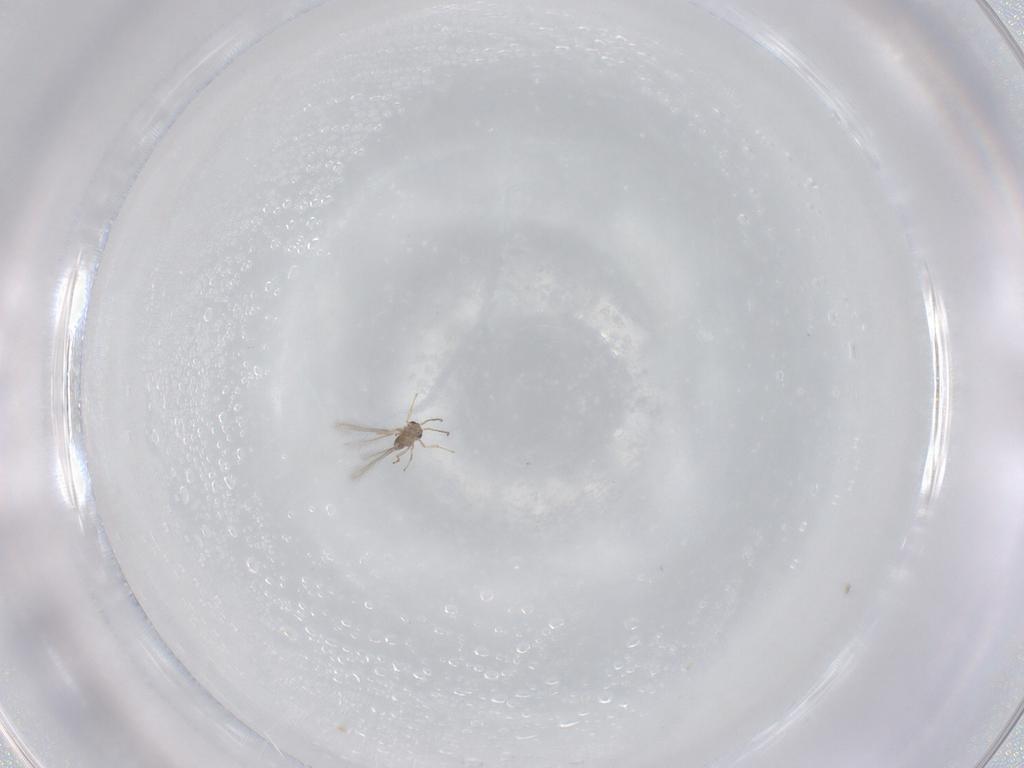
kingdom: Animalia
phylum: Arthropoda
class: Insecta
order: Hymenoptera
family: Mymaridae
